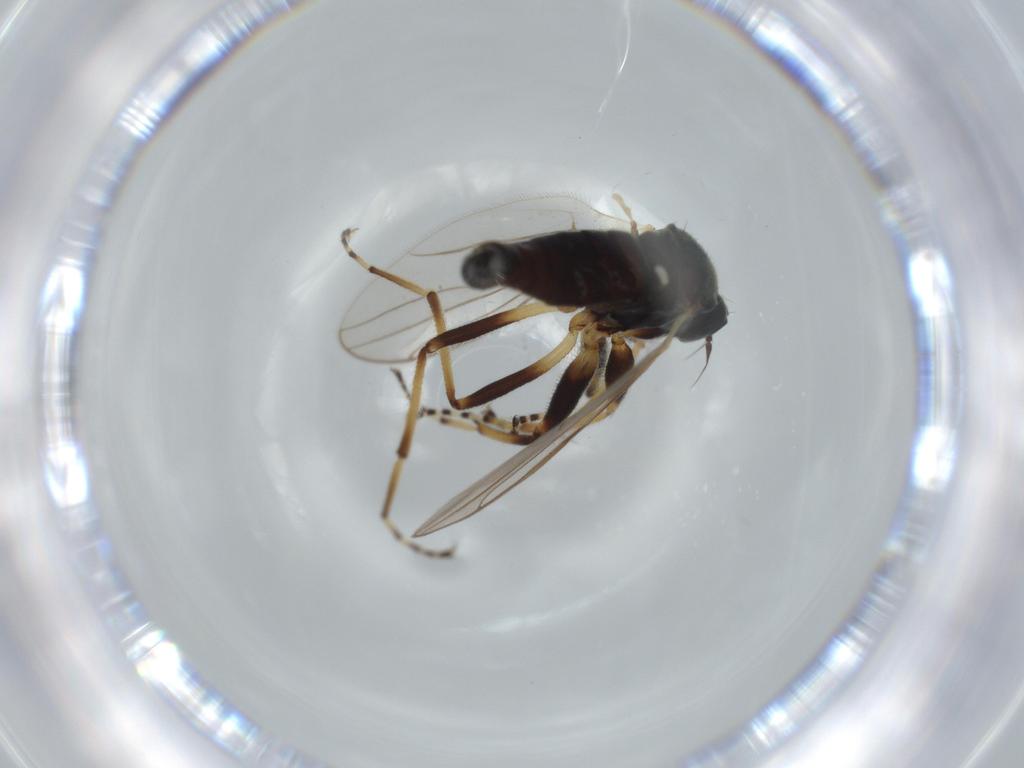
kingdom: Animalia
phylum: Arthropoda
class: Insecta
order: Diptera
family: Hybotidae
